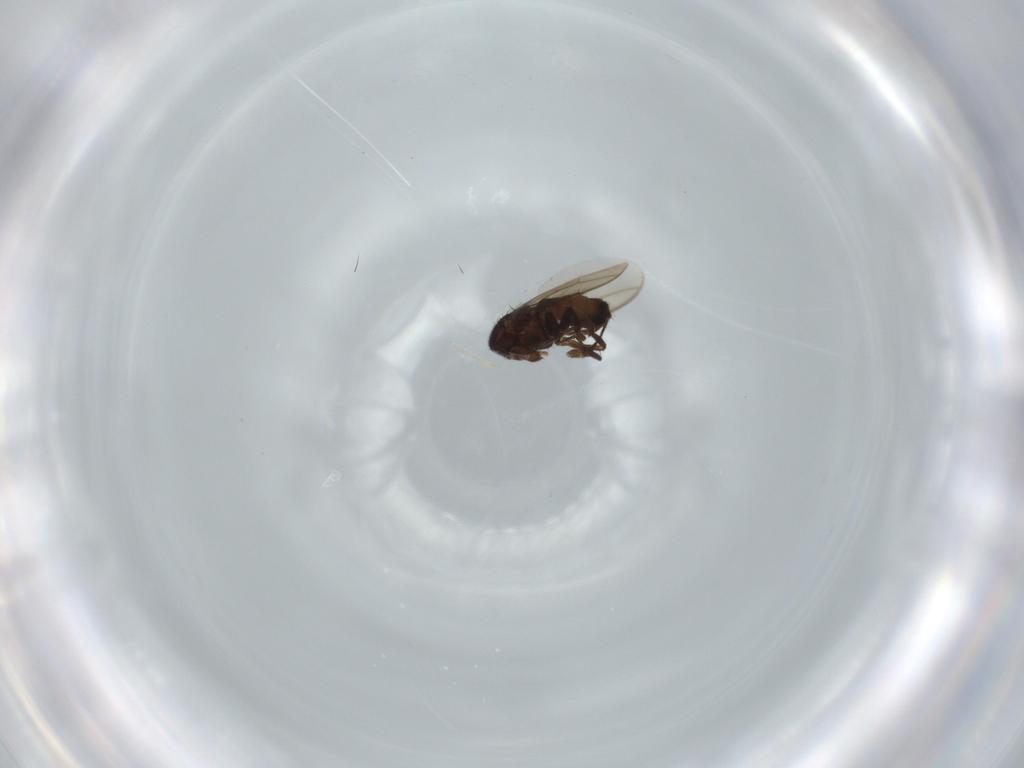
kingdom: Animalia
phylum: Arthropoda
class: Insecta
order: Diptera
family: Sphaeroceridae
